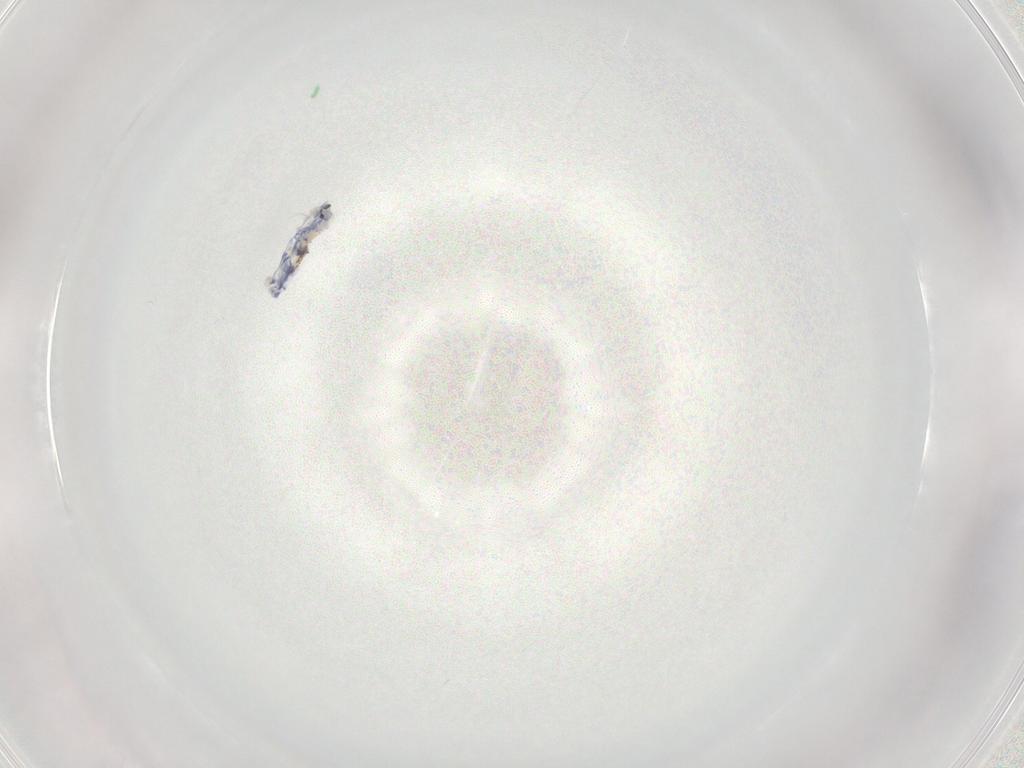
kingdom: Animalia
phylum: Arthropoda
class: Collembola
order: Entomobryomorpha
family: Entomobryidae
